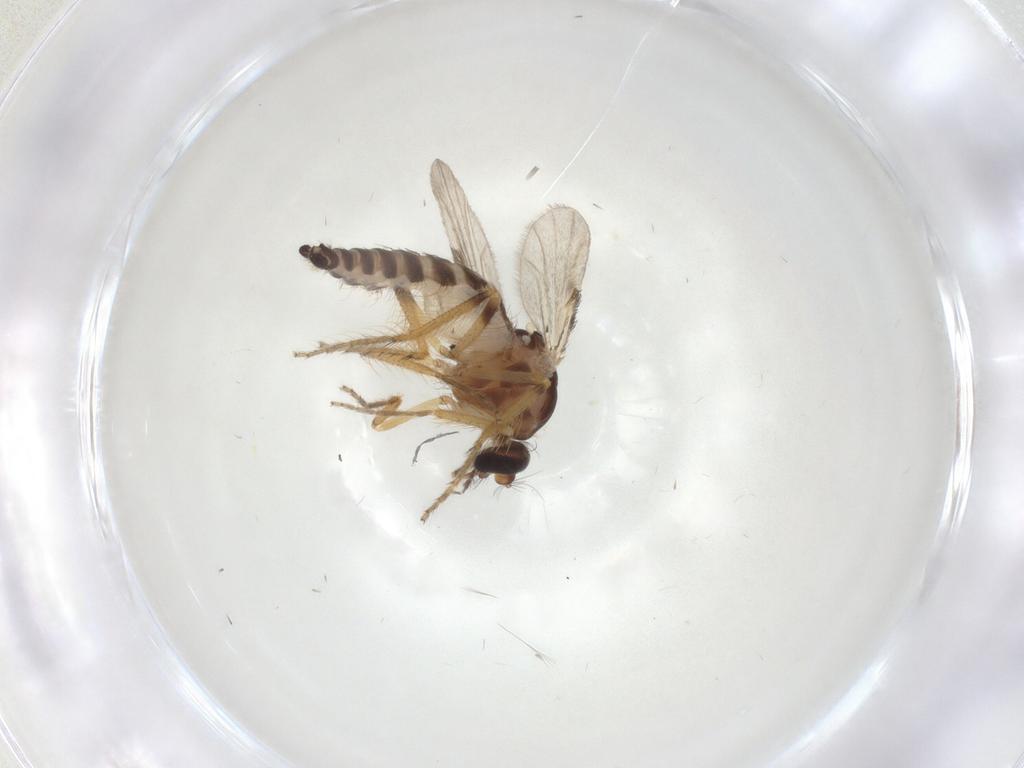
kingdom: Animalia
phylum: Arthropoda
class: Insecta
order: Diptera
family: Ceratopogonidae
